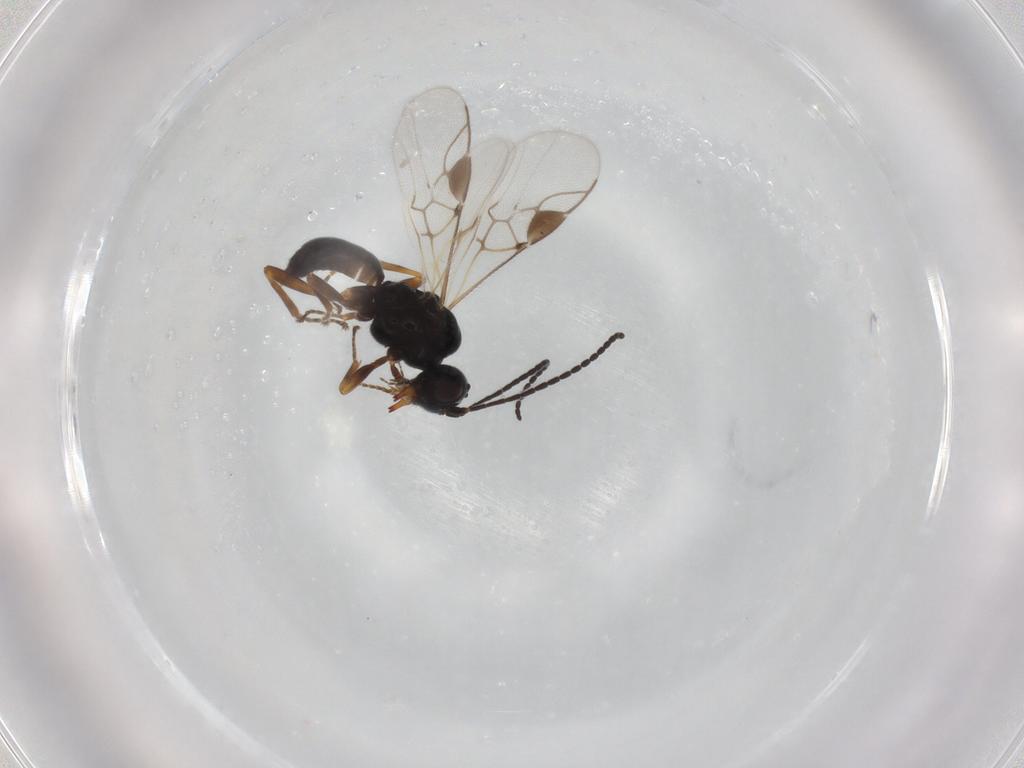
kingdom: Animalia
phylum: Arthropoda
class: Insecta
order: Hymenoptera
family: Braconidae
